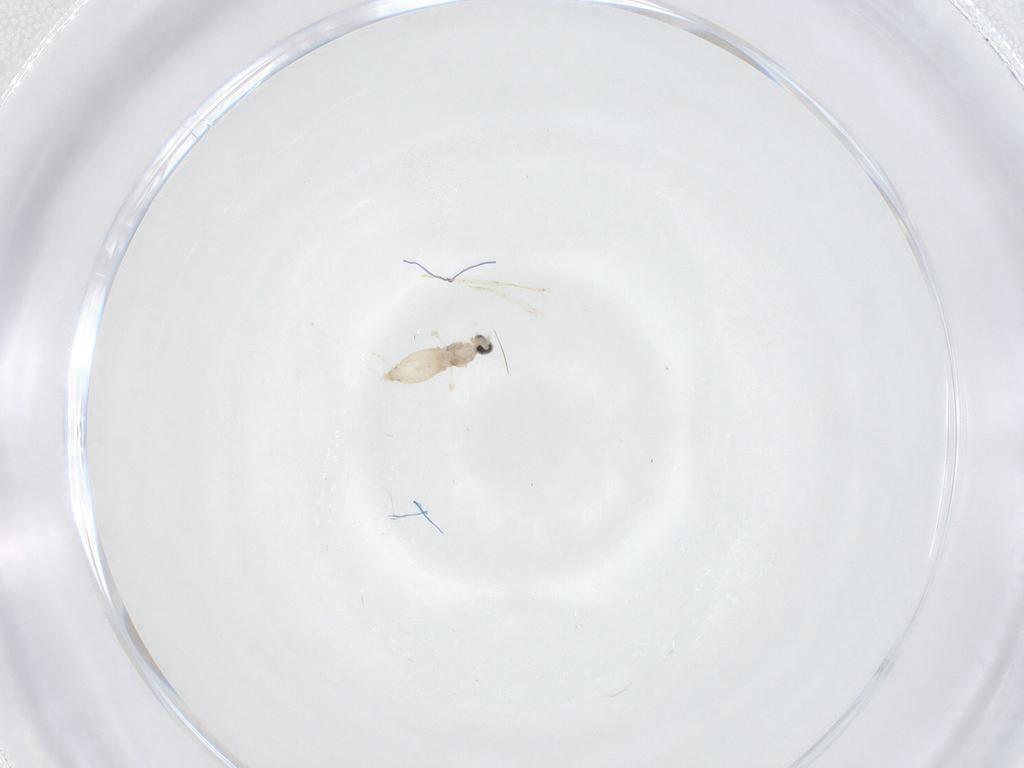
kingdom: Animalia
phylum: Arthropoda
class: Insecta
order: Diptera
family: Cecidomyiidae
